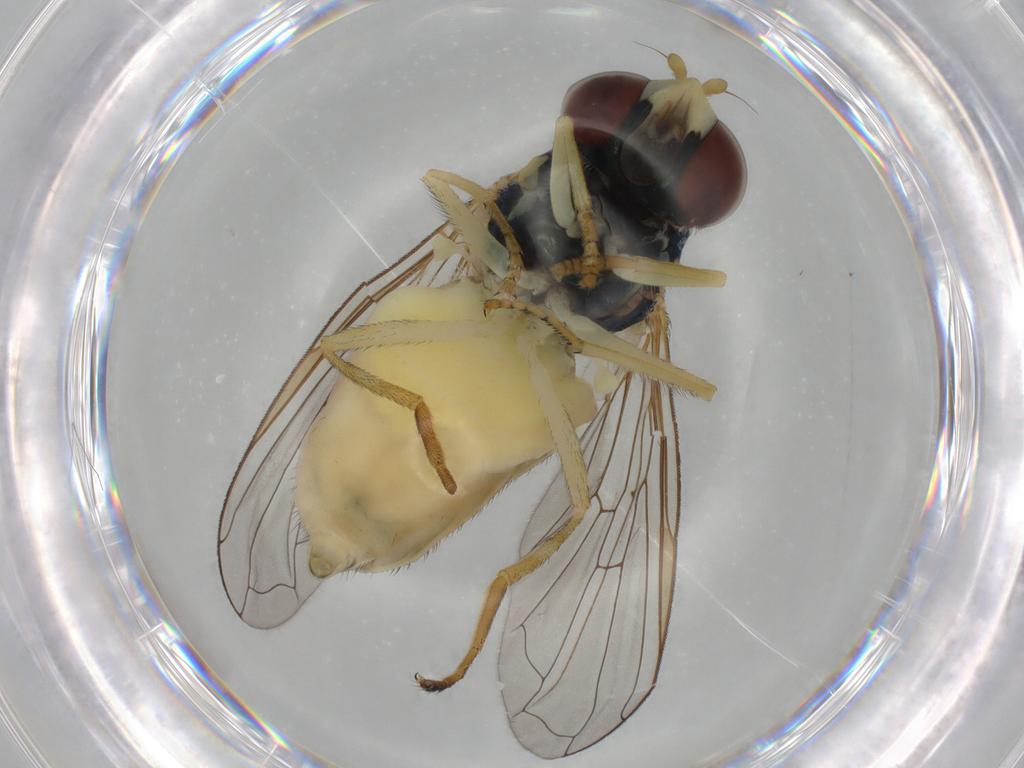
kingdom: Animalia
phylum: Arthropoda
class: Insecta
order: Diptera
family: Syrphidae
